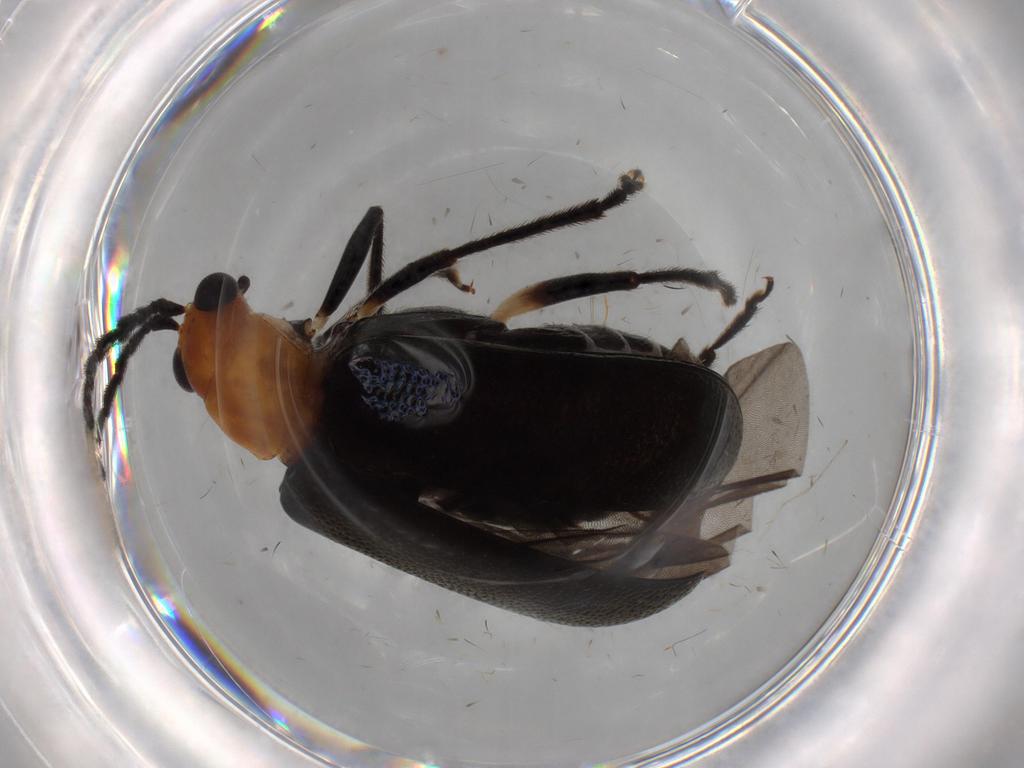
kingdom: Animalia
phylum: Arthropoda
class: Insecta
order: Coleoptera
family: Chrysomelidae
